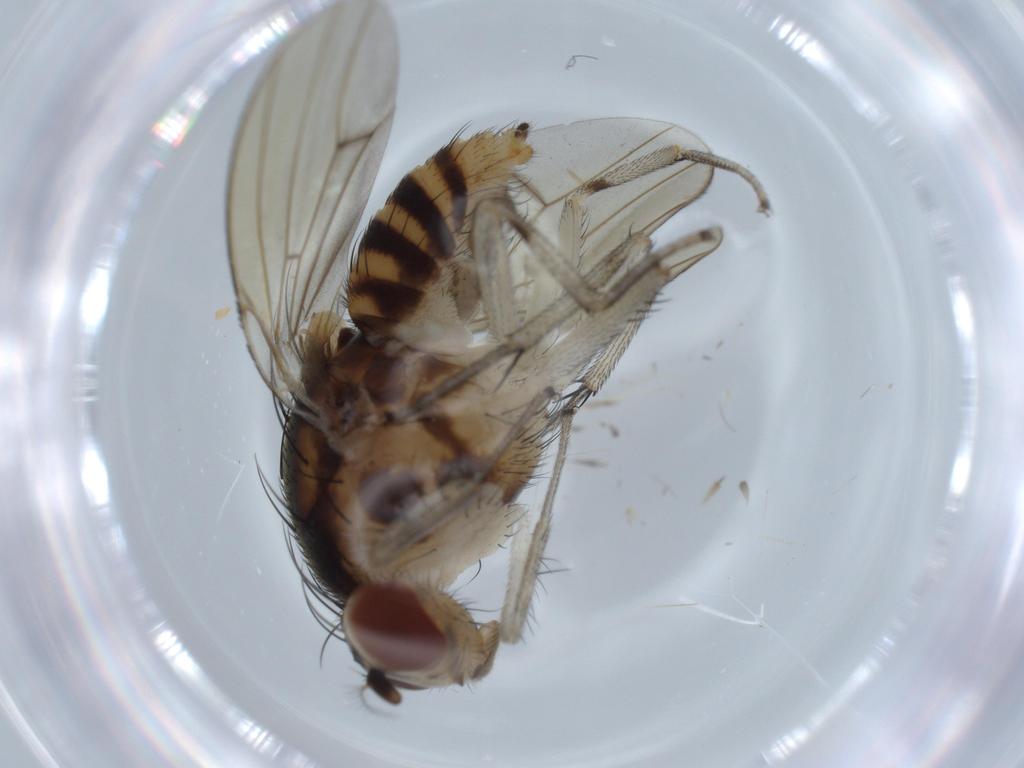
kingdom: Animalia
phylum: Arthropoda
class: Insecta
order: Diptera
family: Cecidomyiidae
